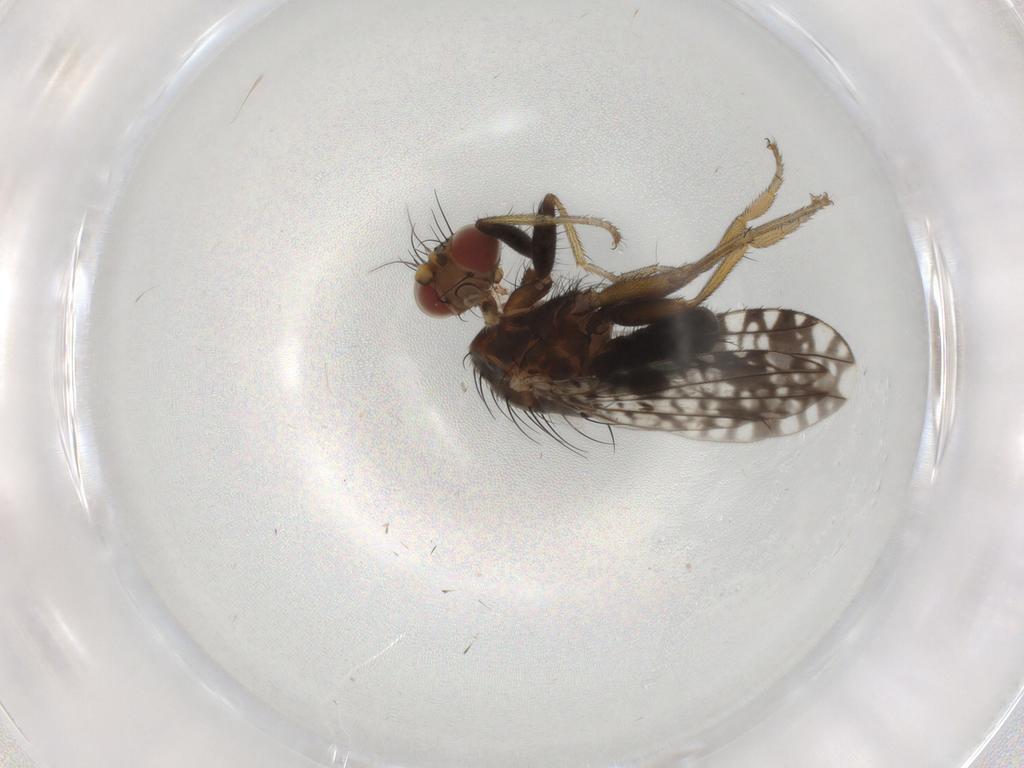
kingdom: Animalia
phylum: Arthropoda
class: Insecta
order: Diptera
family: Tephritidae
